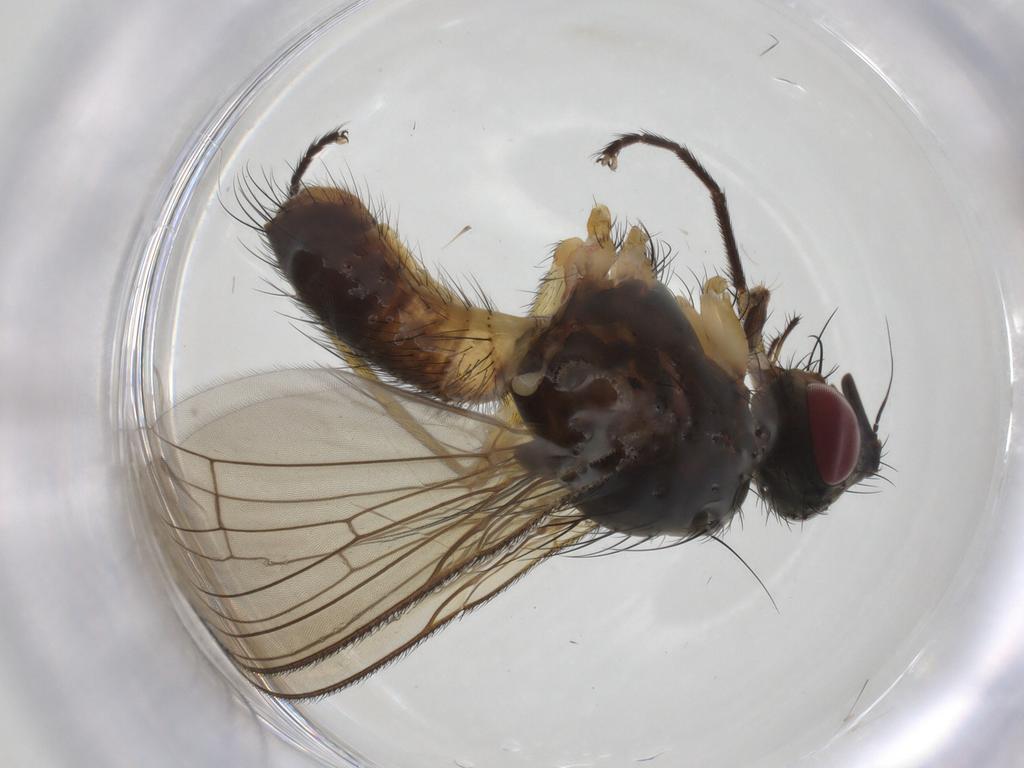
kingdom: Animalia
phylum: Arthropoda
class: Insecta
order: Diptera
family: Muscidae
